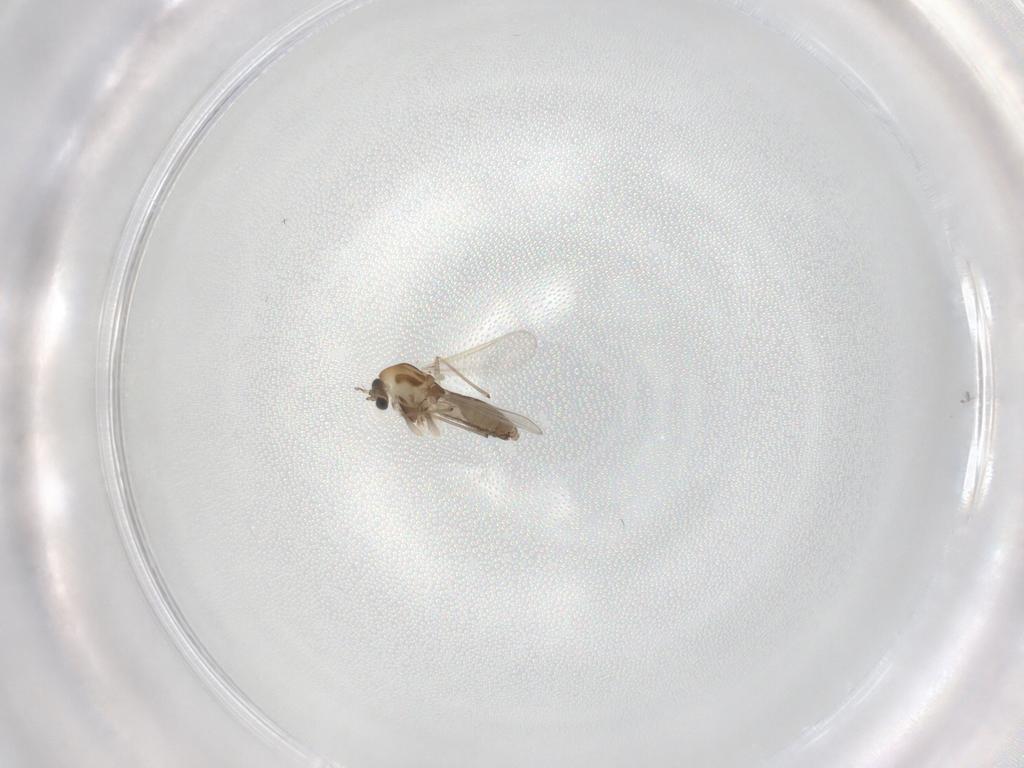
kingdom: Animalia
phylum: Arthropoda
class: Insecta
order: Diptera
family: Chironomidae
